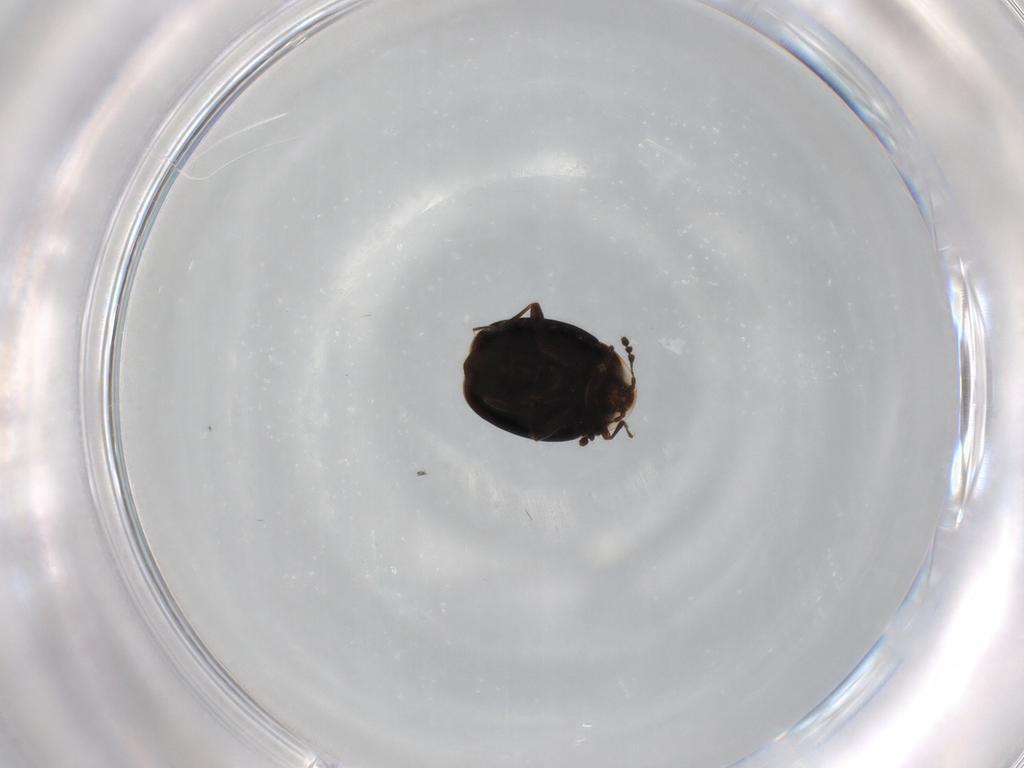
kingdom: Animalia
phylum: Arthropoda
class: Insecta
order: Coleoptera
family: Corylophidae
